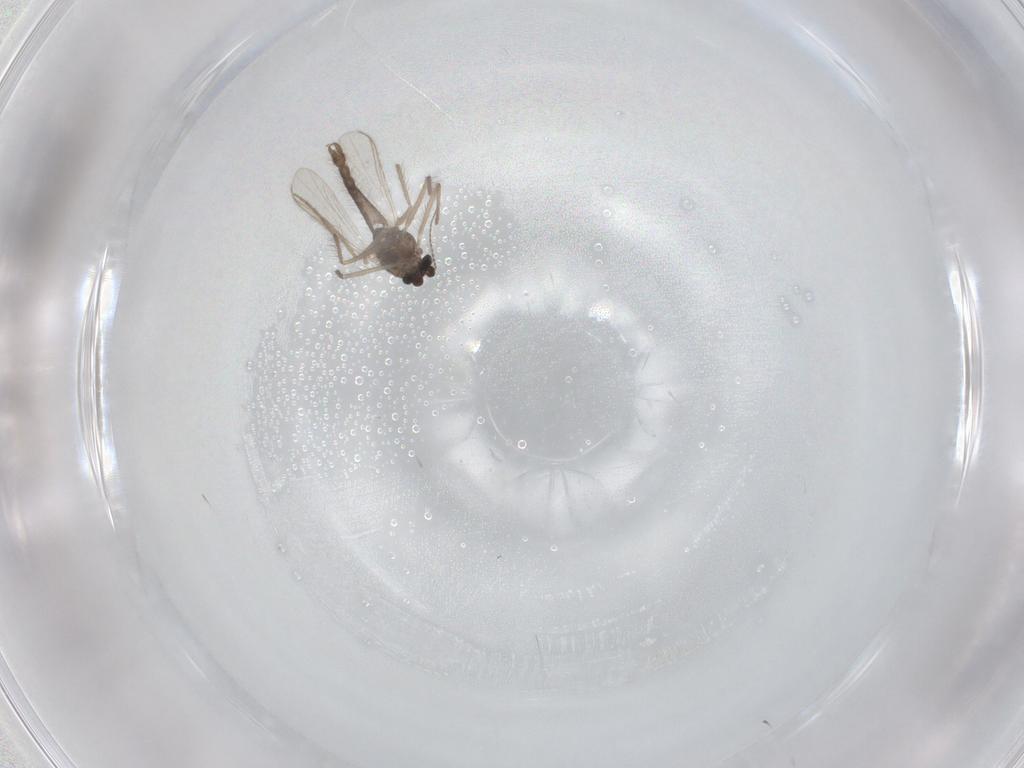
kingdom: Animalia
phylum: Arthropoda
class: Insecta
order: Diptera
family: Chironomidae
